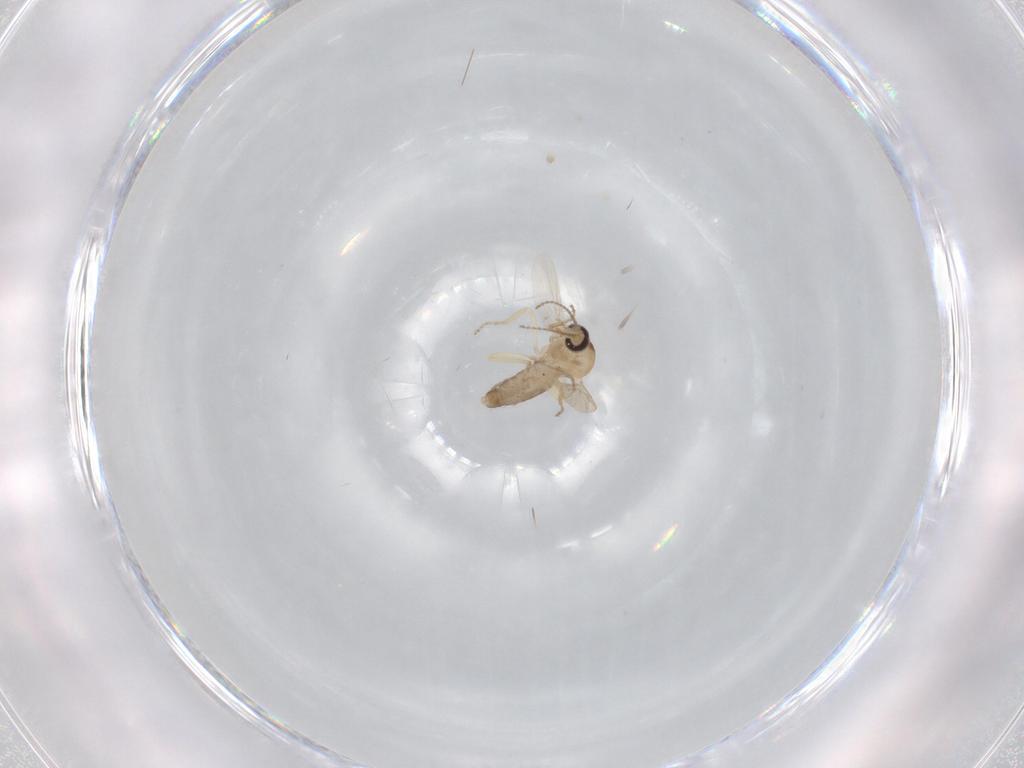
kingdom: Animalia
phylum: Arthropoda
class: Insecta
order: Diptera
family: Ceratopogonidae
